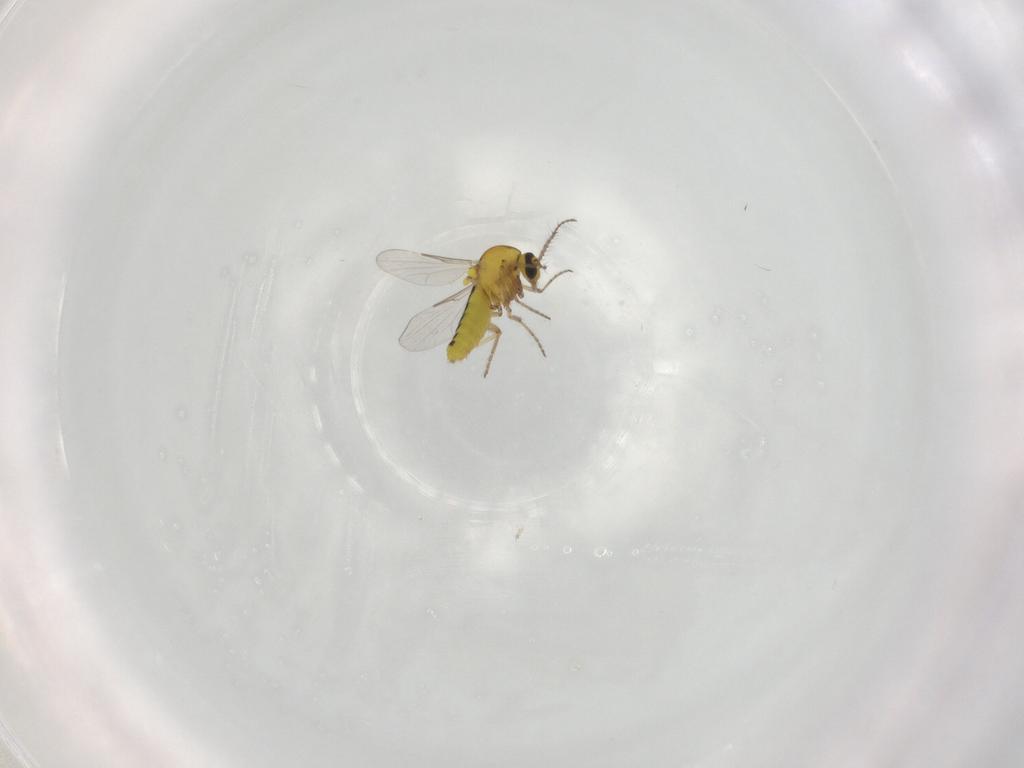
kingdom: Animalia
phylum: Arthropoda
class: Insecta
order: Diptera
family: Ceratopogonidae
